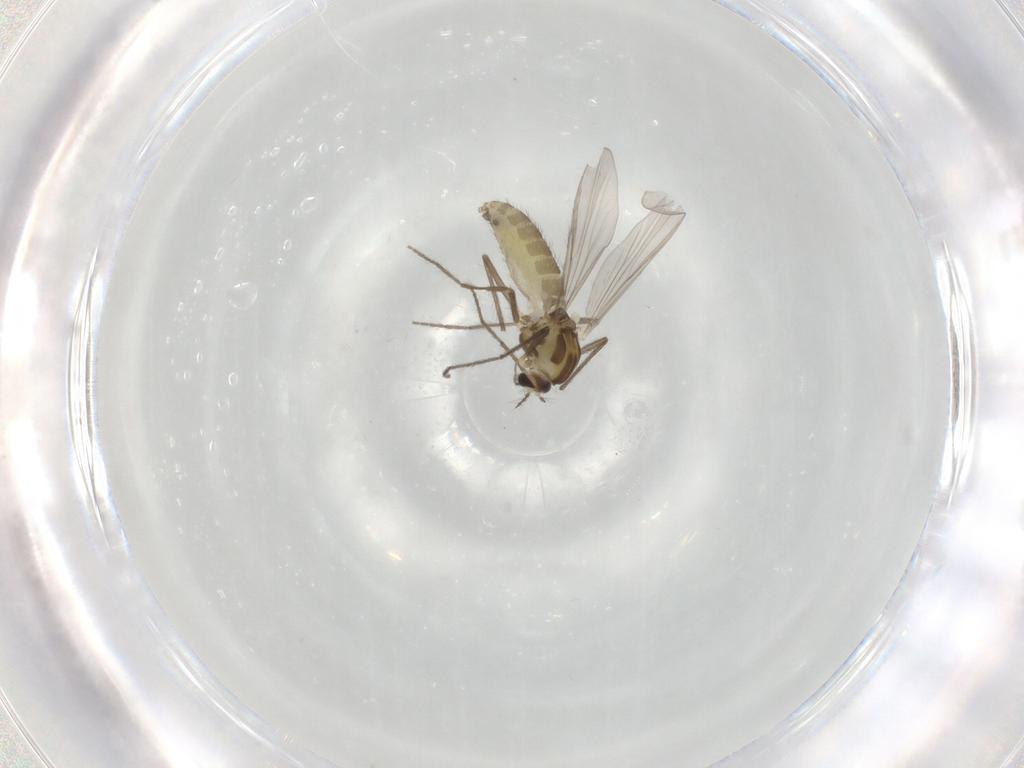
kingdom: Animalia
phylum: Arthropoda
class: Insecta
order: Diptera
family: Chironomidae
